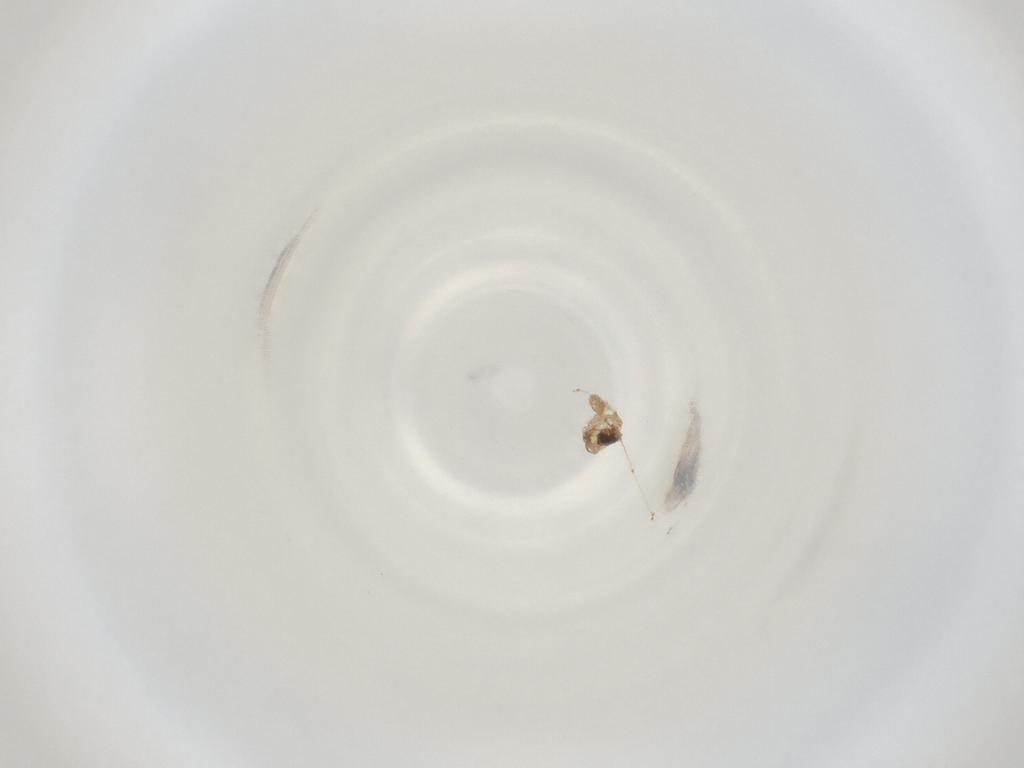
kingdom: Animalia
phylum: Arthropoda
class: Insecta
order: Diptera
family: Cecidomyiidae
